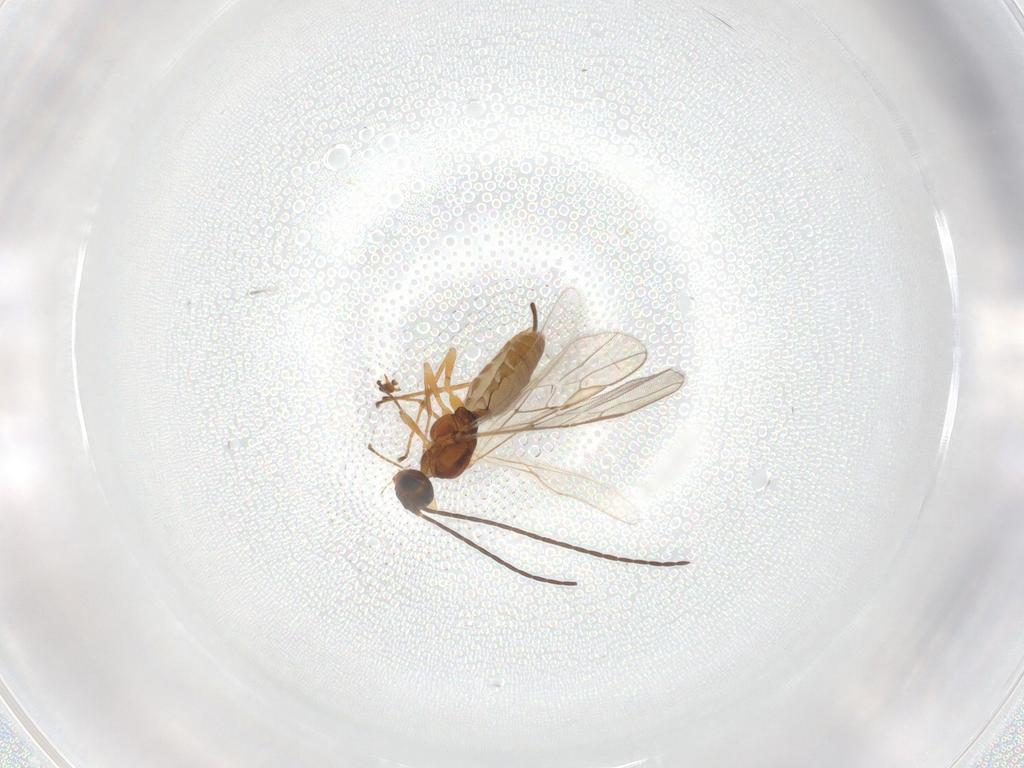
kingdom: Animalia
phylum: Arthropoda
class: Insecta
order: Hymenoptera
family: Braconidae
